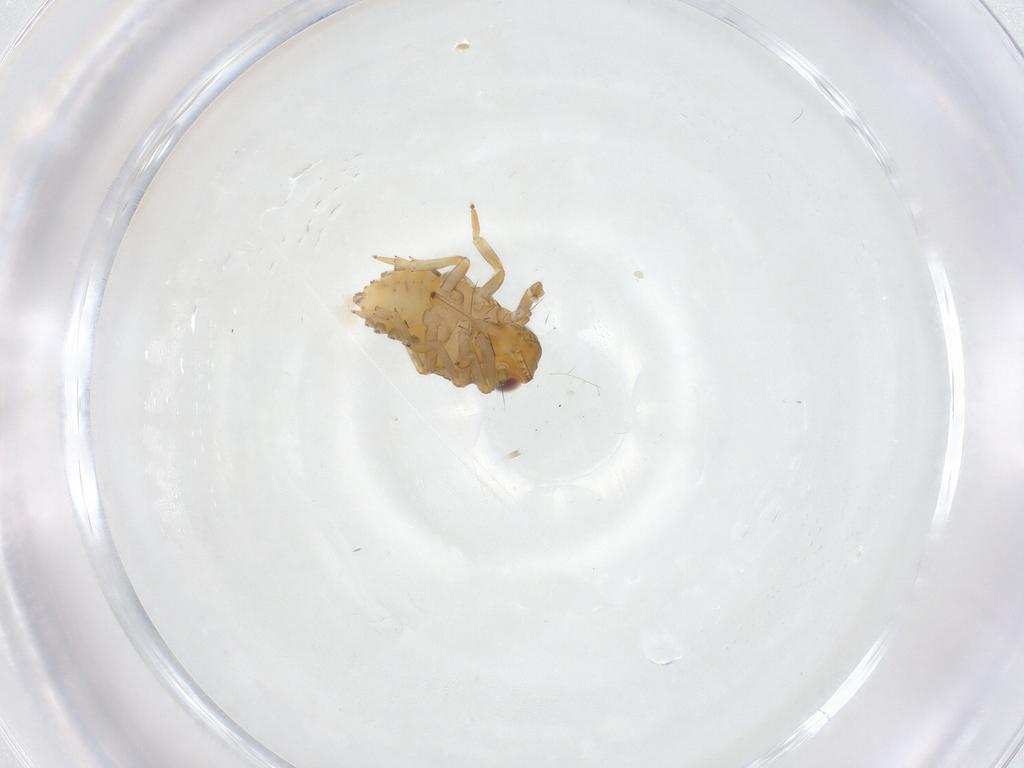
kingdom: Animalia
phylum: Arthropoda
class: Insecta
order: Hemiptera
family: Issidae
